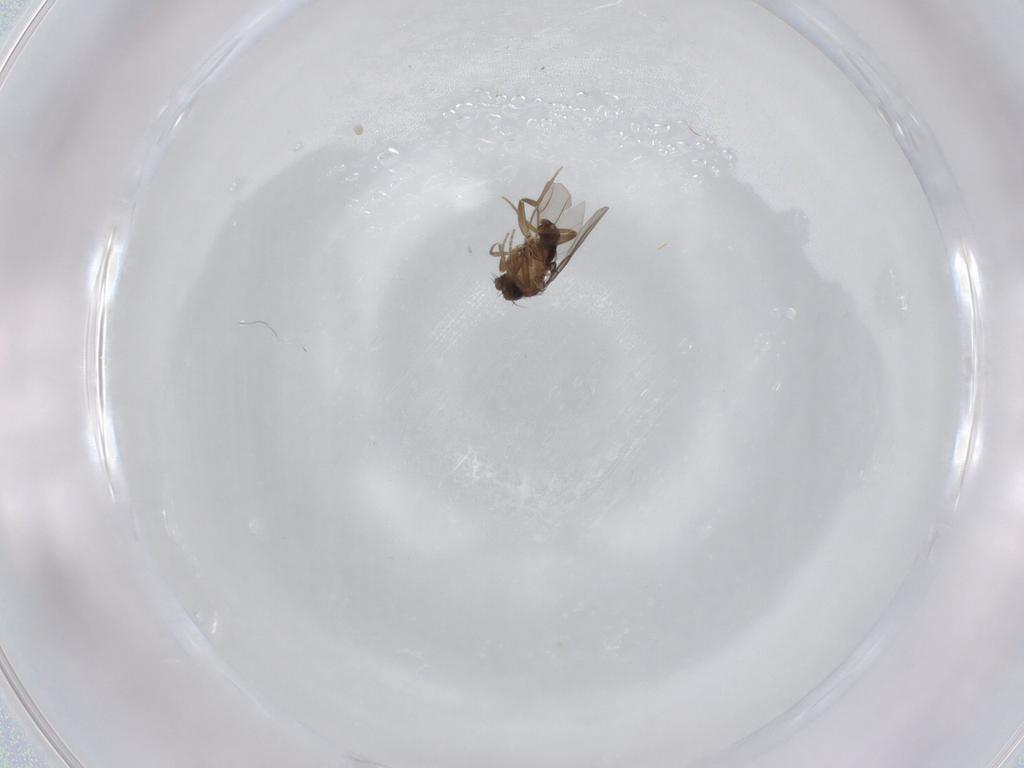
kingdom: Animalia
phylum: Arthropoda
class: Insecta
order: Diptera
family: Phoridae
